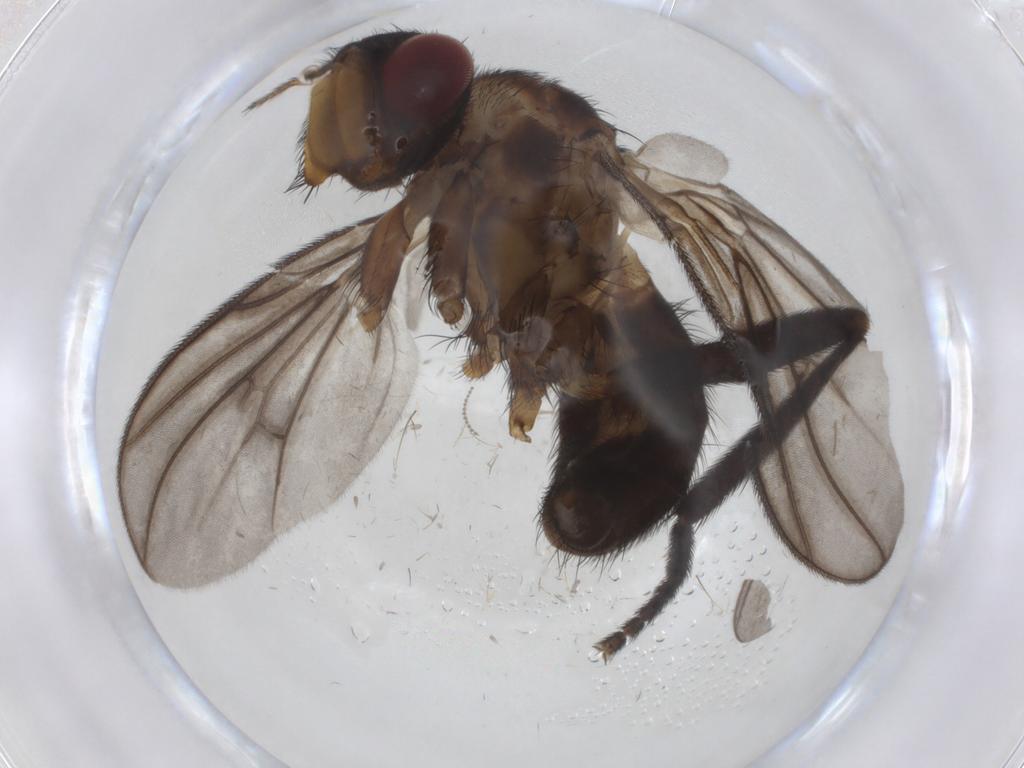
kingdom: Animalia
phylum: Arthropoda
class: Insecta
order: Diptera
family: Calliphoridae
